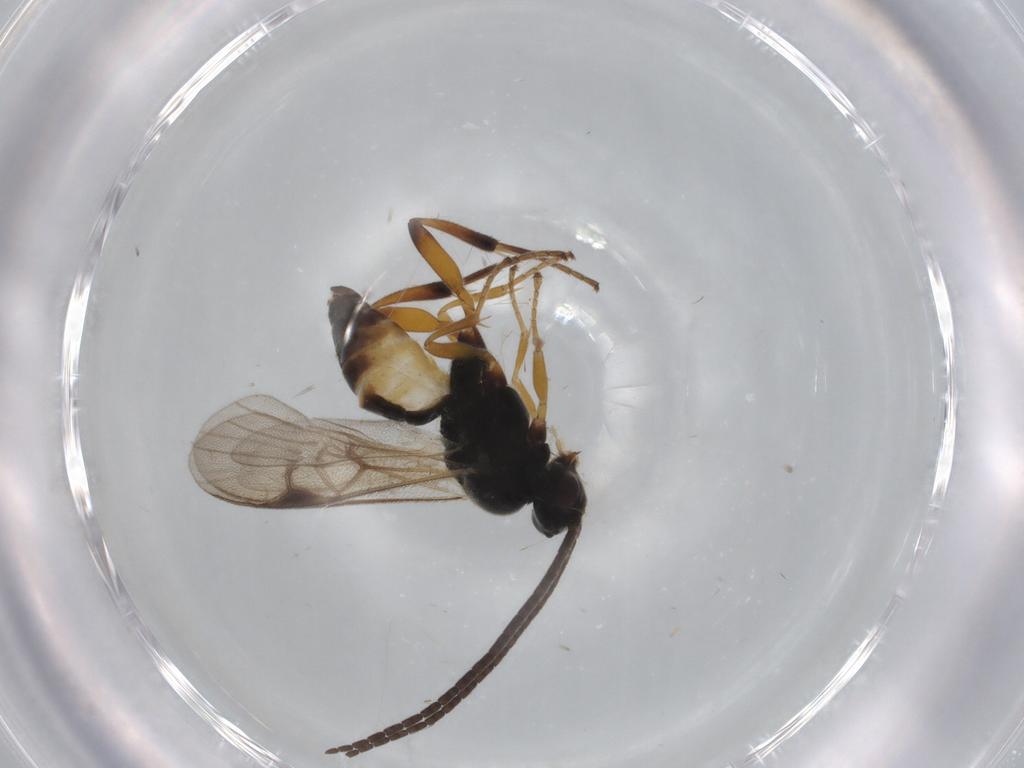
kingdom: Animalia
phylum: Arthropoda
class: Insecta
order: Hymenoptera
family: Braconidae
